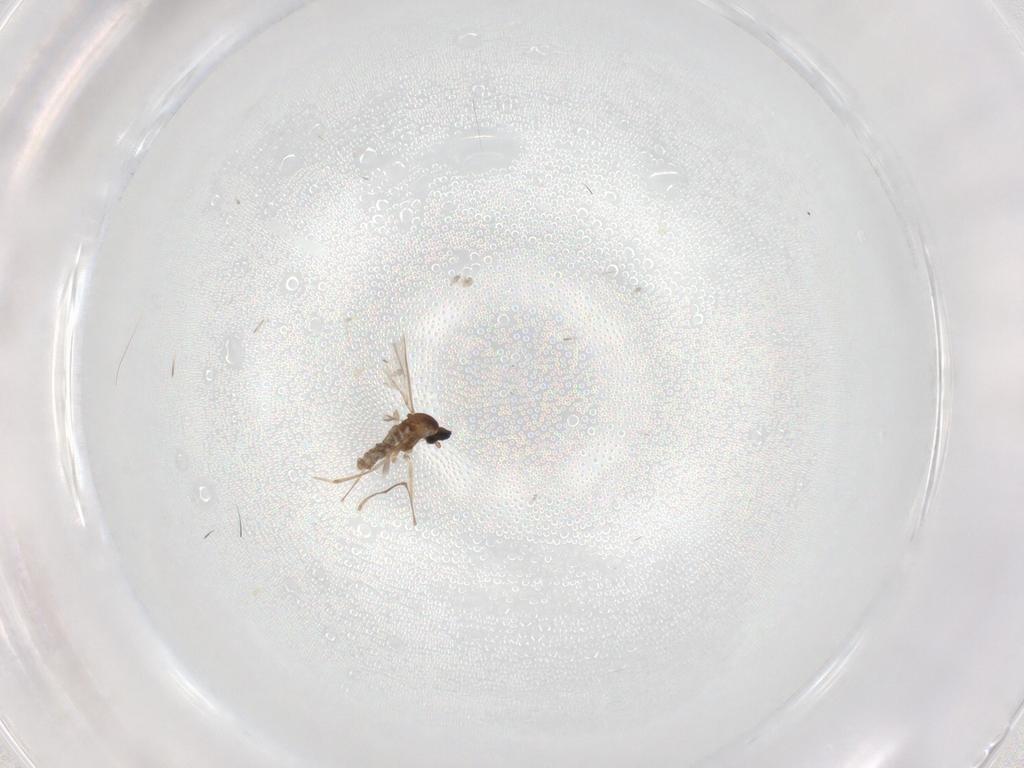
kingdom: Animalia
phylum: Arthropoda
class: Insecta
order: Diptera
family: Cecidomyiidae
